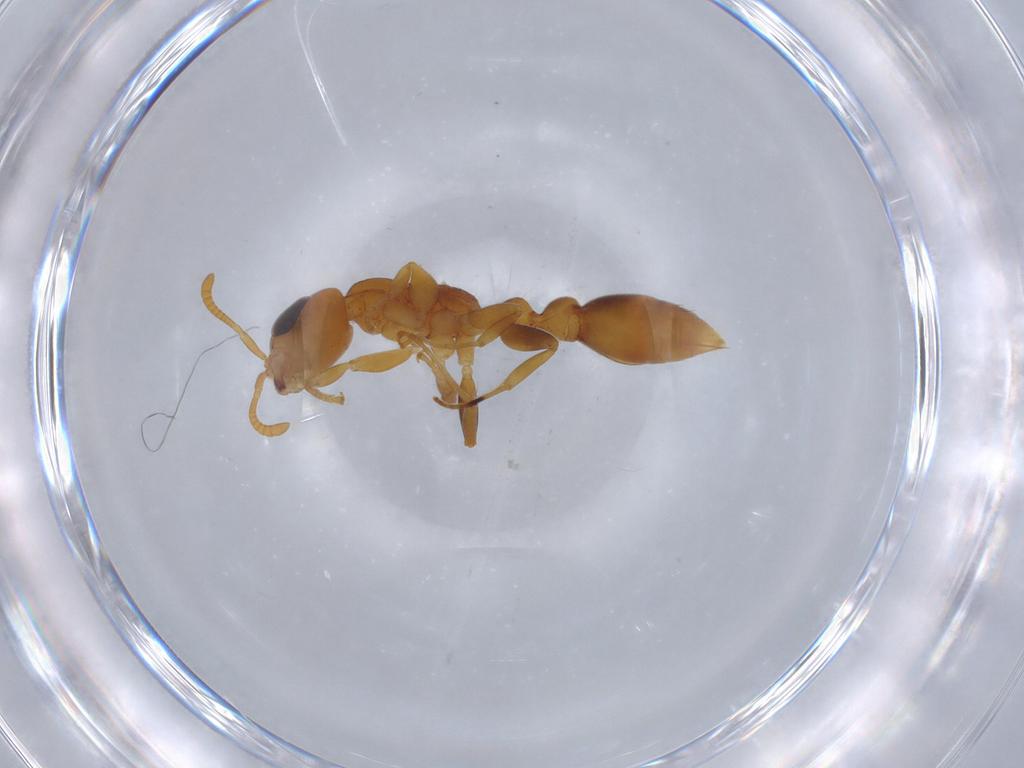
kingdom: Animalia
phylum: Arthropoda
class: Insecta
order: Hymenoptera
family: Formicidae
